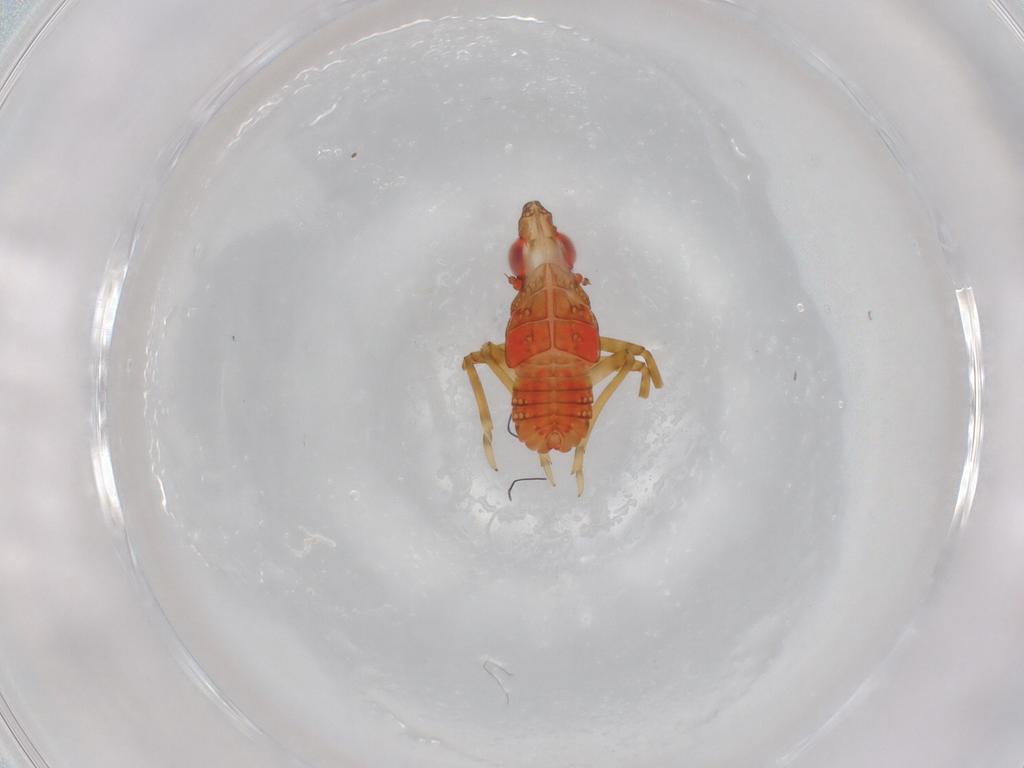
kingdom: Animalia
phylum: Arthropoda
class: Insecta
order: Hemiptera
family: Fulgoroidea_incertae_sedis
